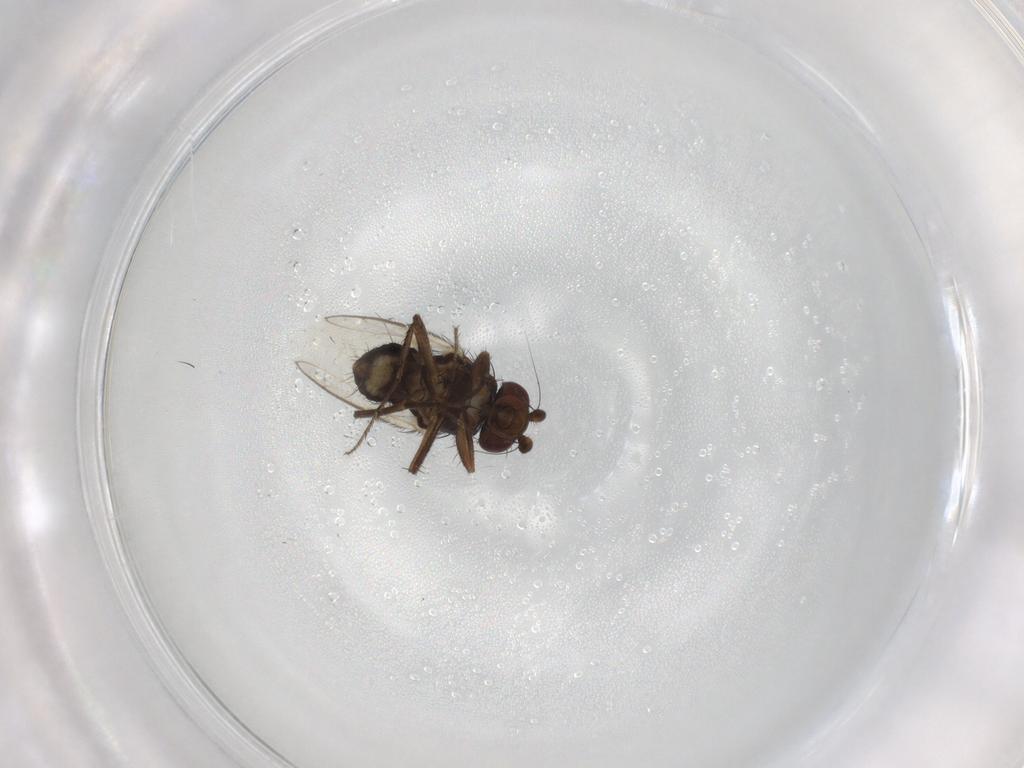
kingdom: Animalia
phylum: Arthropoda
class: Insecta
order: Diptera
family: Sphaeroceridae
